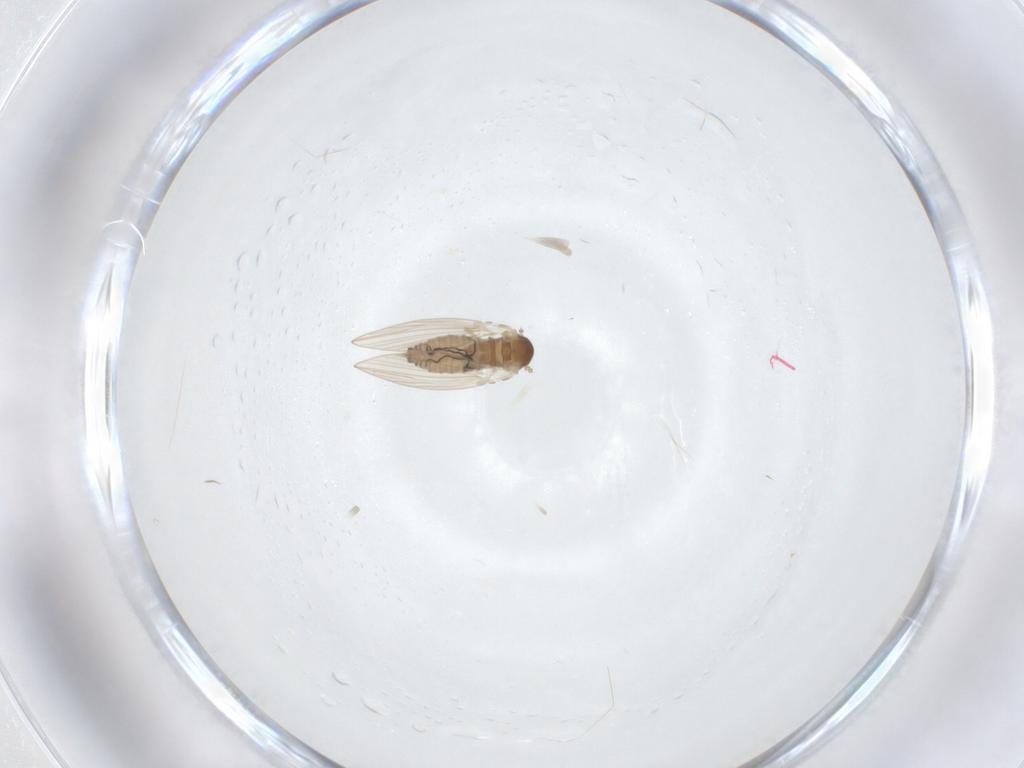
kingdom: Animalia
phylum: Arthropoda
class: Insecta
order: Diptera
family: Psychodidae
